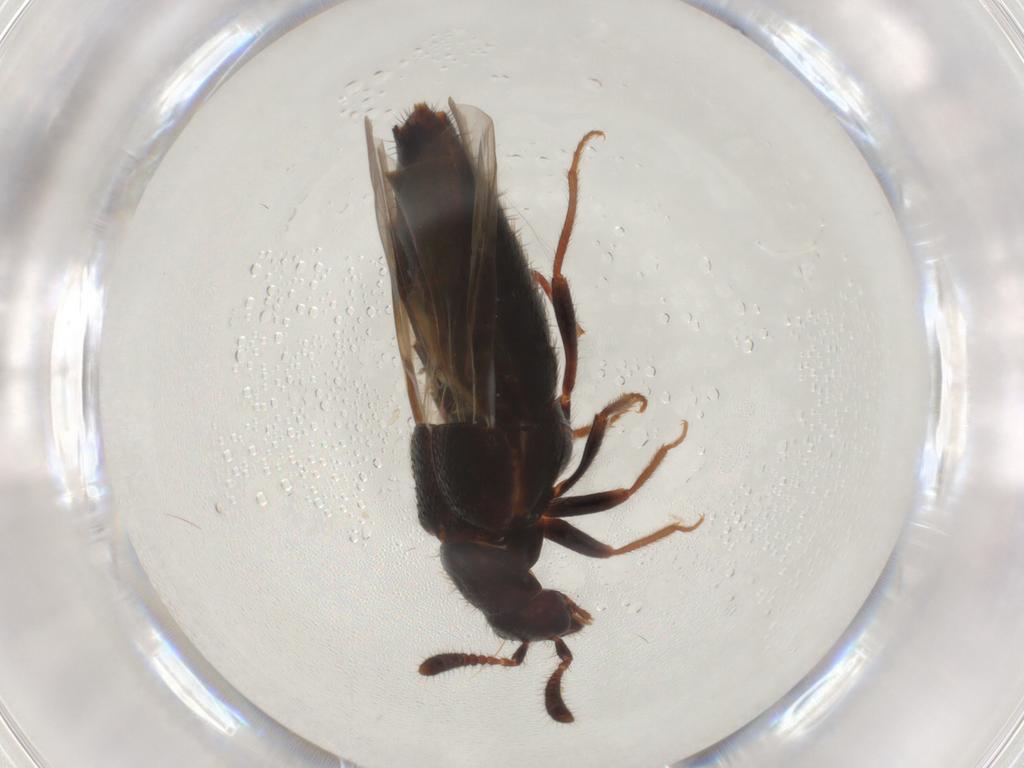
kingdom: Animalia
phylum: Arthropoda
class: Insecta
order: Coleoptera
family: Staphylinidae
